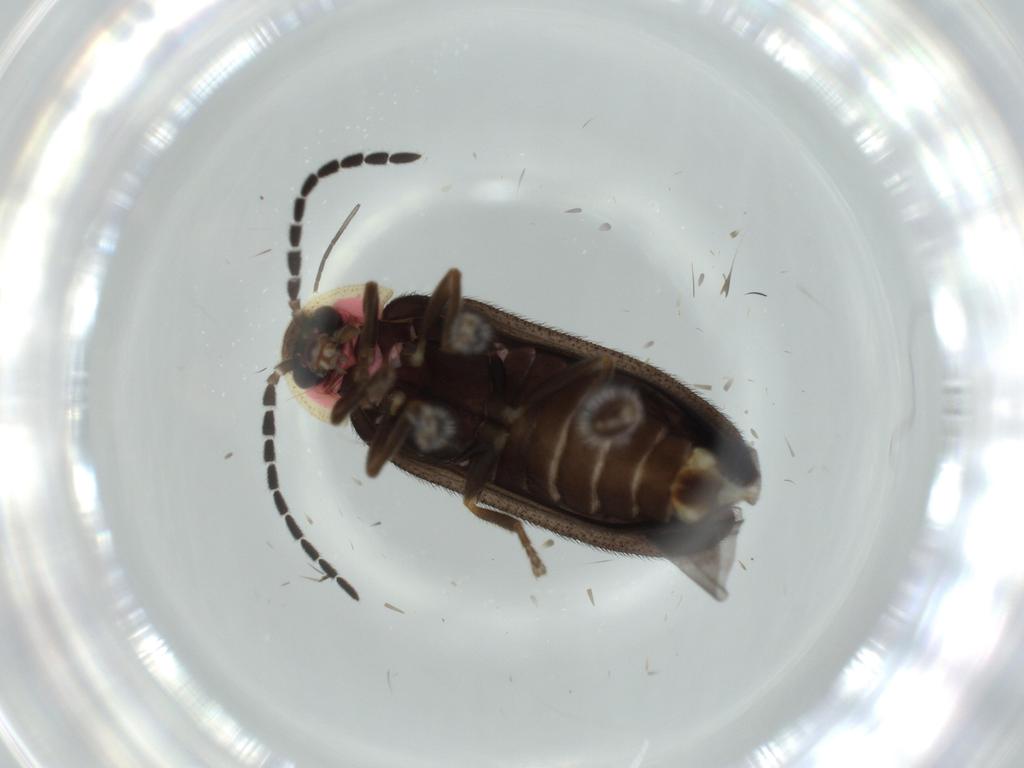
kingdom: Animalia
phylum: Arthropoda
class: Insecta
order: Coleoptera
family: Lampyridae
